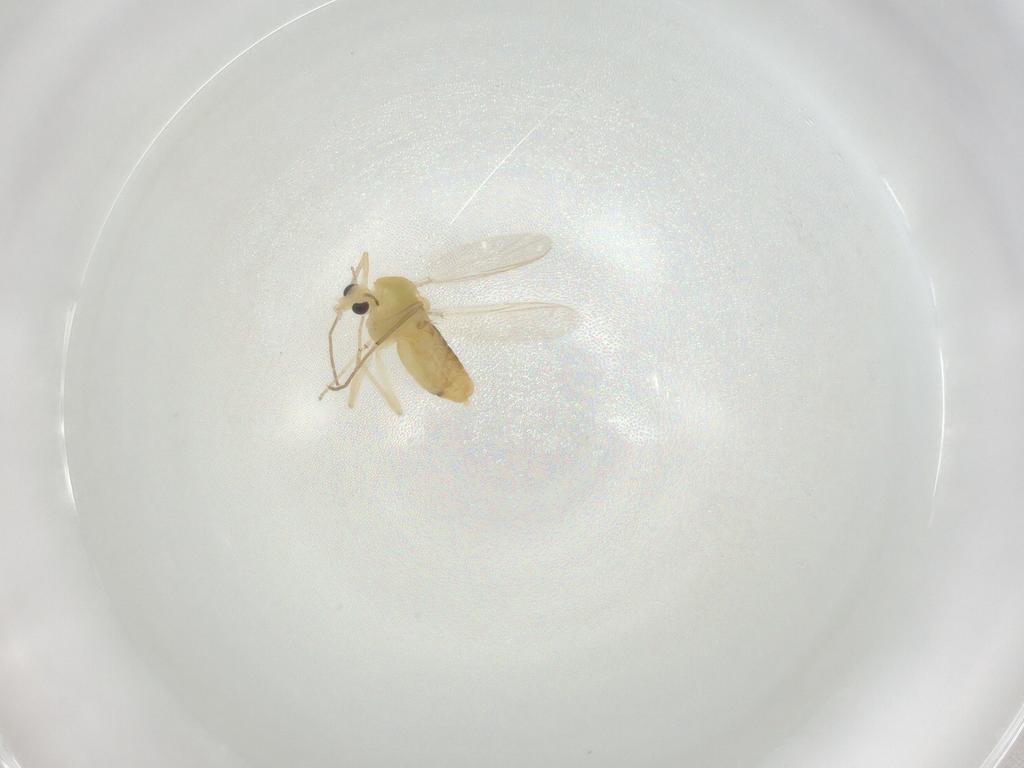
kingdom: Animalia
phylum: Arthropoda
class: Insecta
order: Diptera
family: Chironomidae
